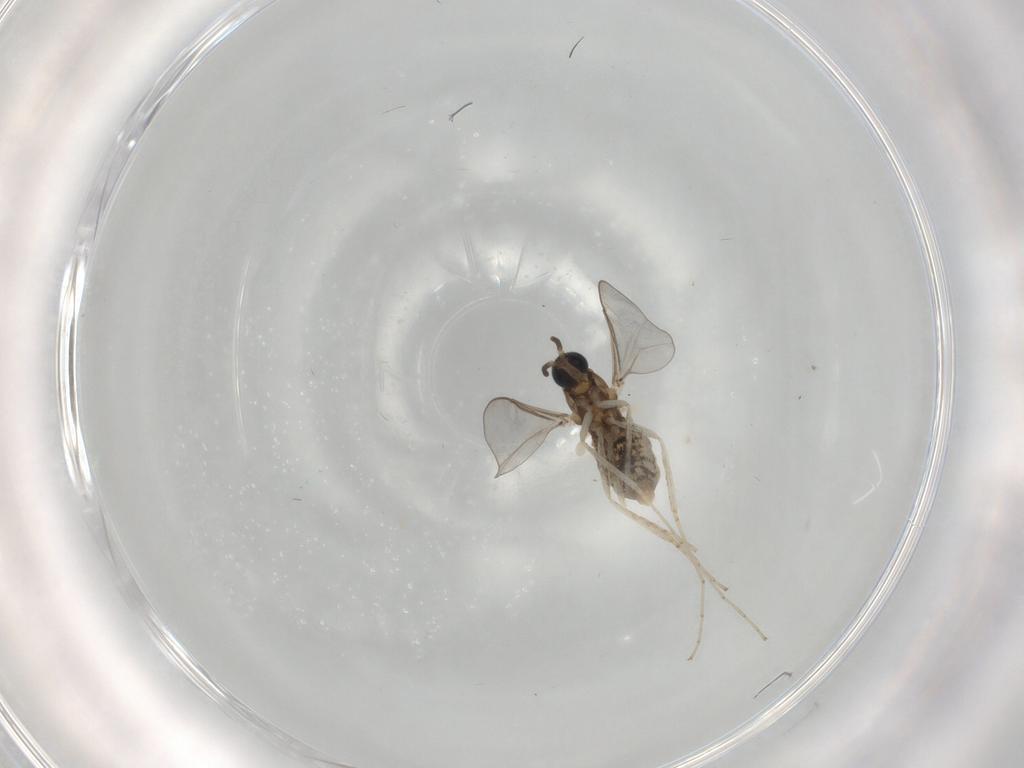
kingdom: Animalia
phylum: Arthropoda
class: Insecta
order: Diptera
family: Cecidomyiidae
